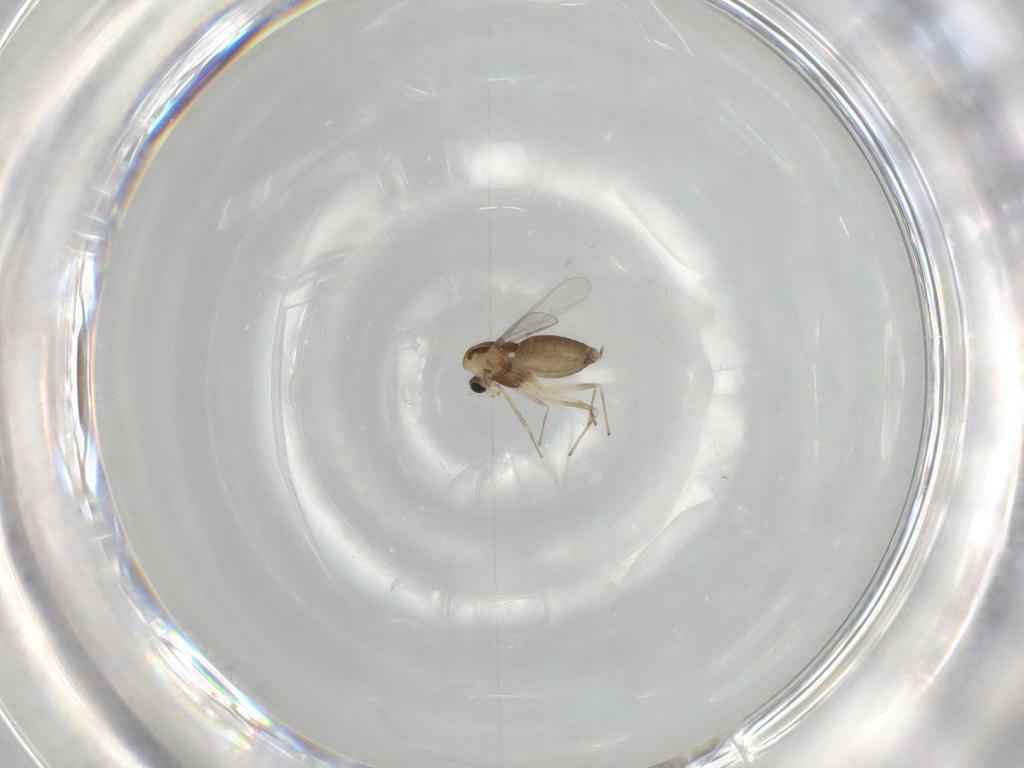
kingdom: Animalia
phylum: Arthropoda
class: Insecta
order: Diptera
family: Chironomidae
